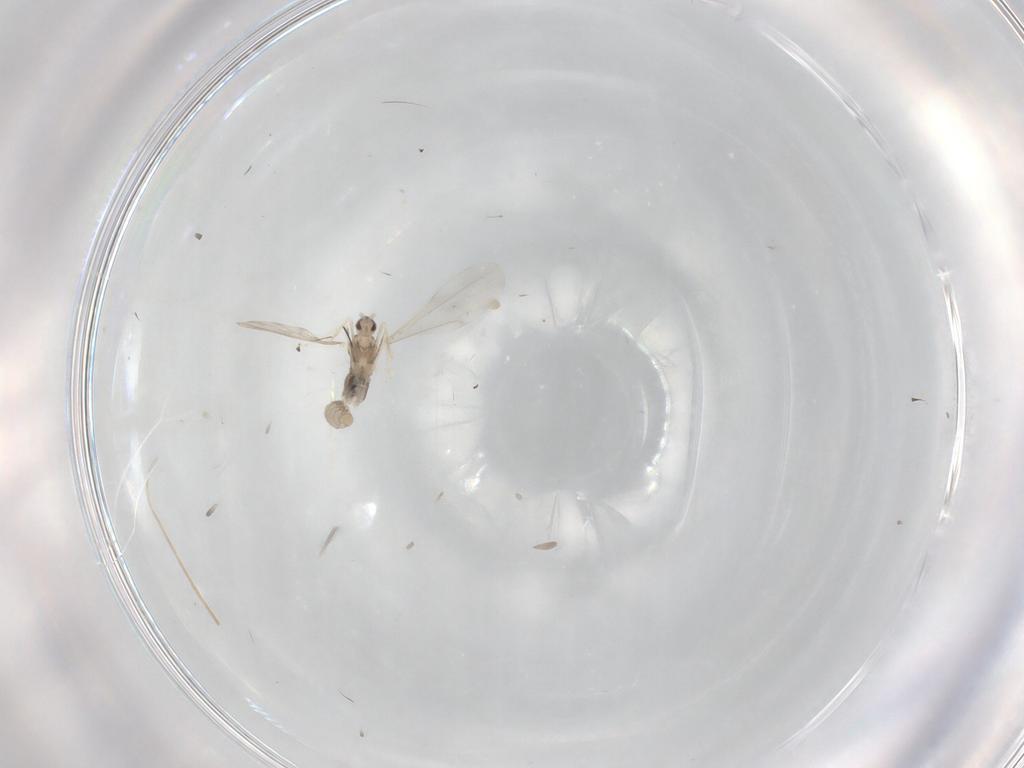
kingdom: Animalia
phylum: Arthropoda
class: Insecta
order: Diptera
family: Cecidomyiidae
